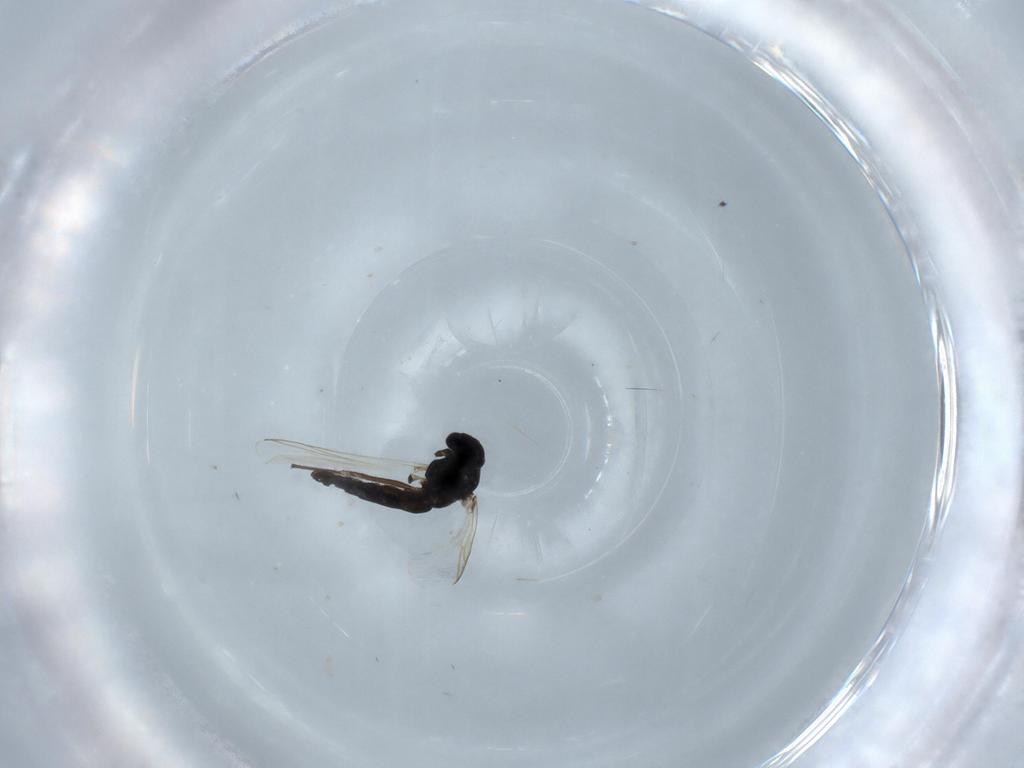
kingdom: Animalia
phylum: Arthropoda
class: Insecta
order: Diptera
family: Chironomidae
